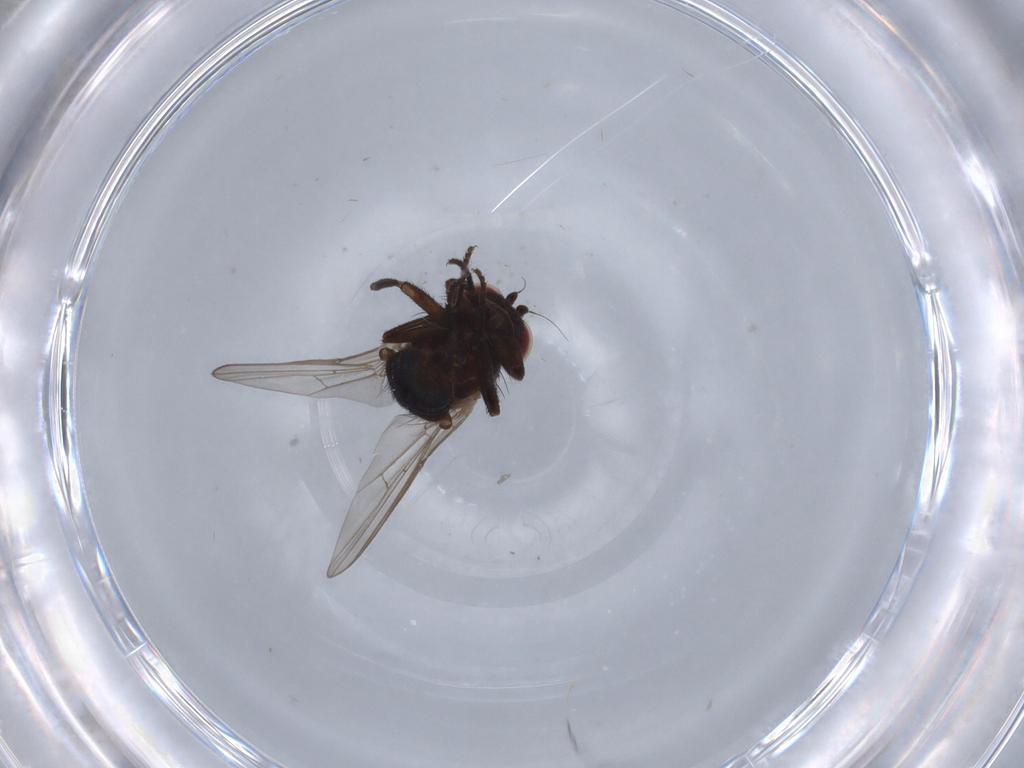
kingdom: Animalia
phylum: Arthropoda
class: Insecta
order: Diptera
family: Agromyzidae
